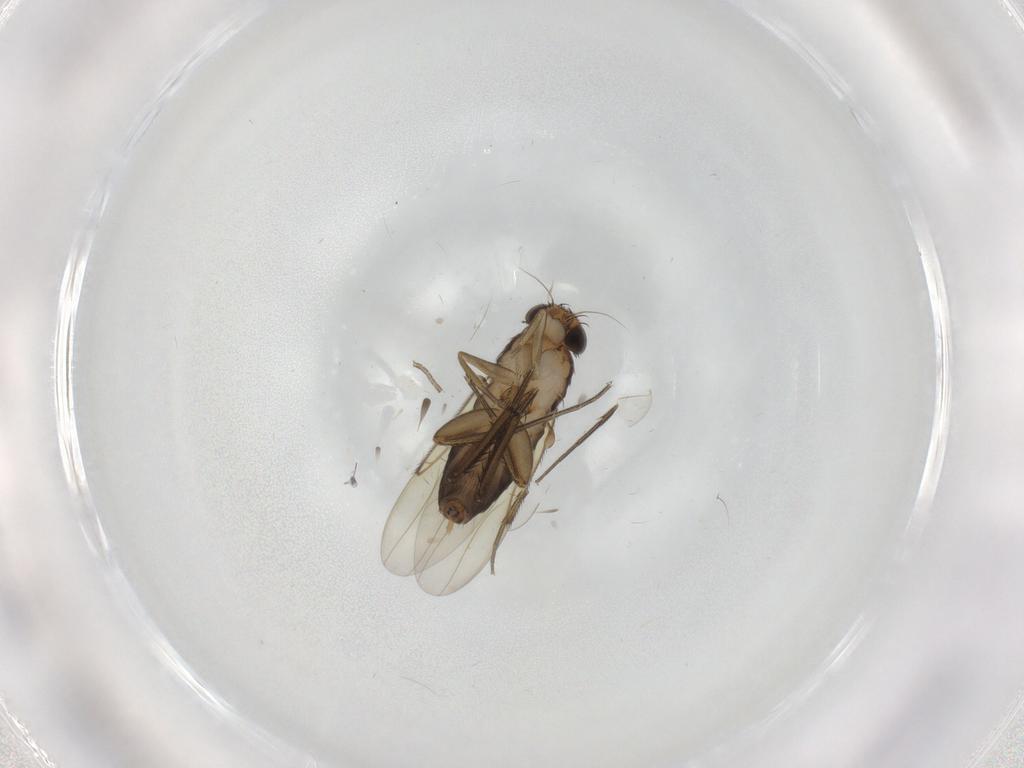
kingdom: Animalia
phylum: Arthropoda
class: Insecta
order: Diptera
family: Phoridae
